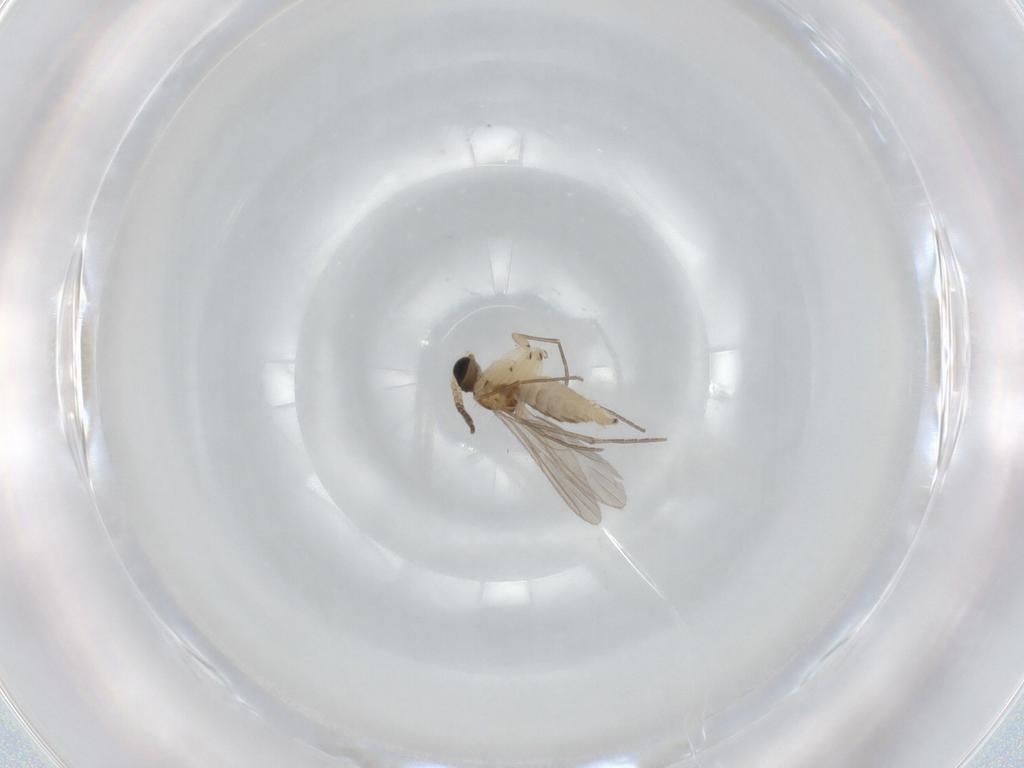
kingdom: Animalia
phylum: Arthropoda
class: Insecta
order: Diptera
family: Sciaridae
